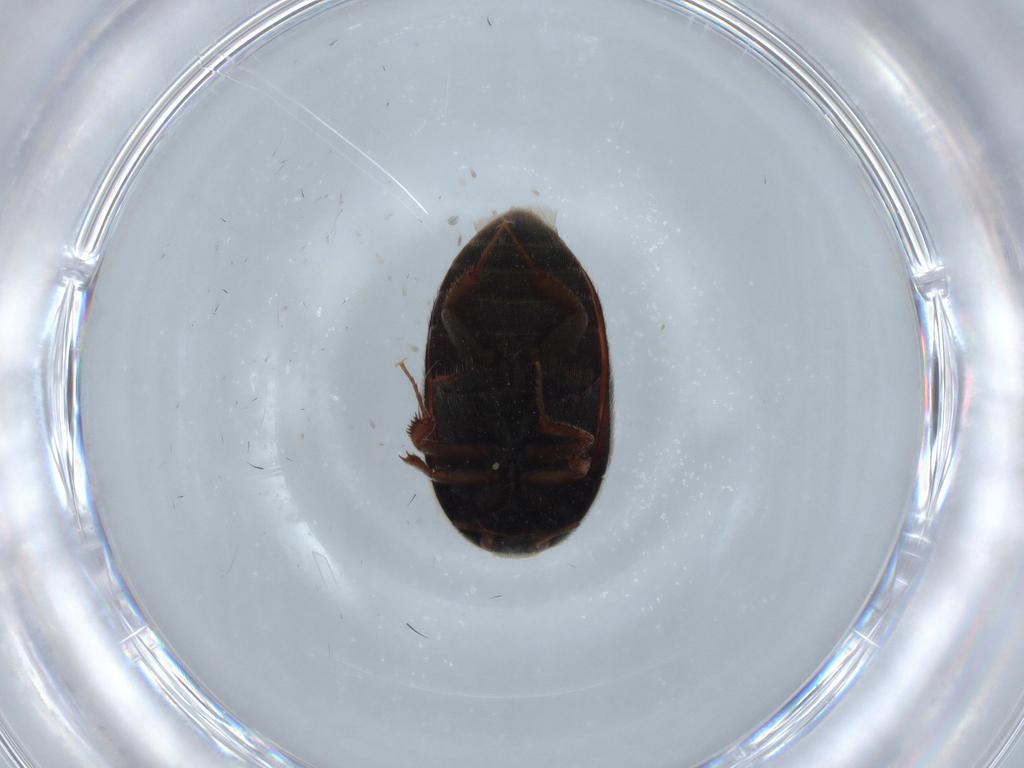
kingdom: Animalia
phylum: Arthropoda
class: Insecta
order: Coleoptera
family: Dermestidae
